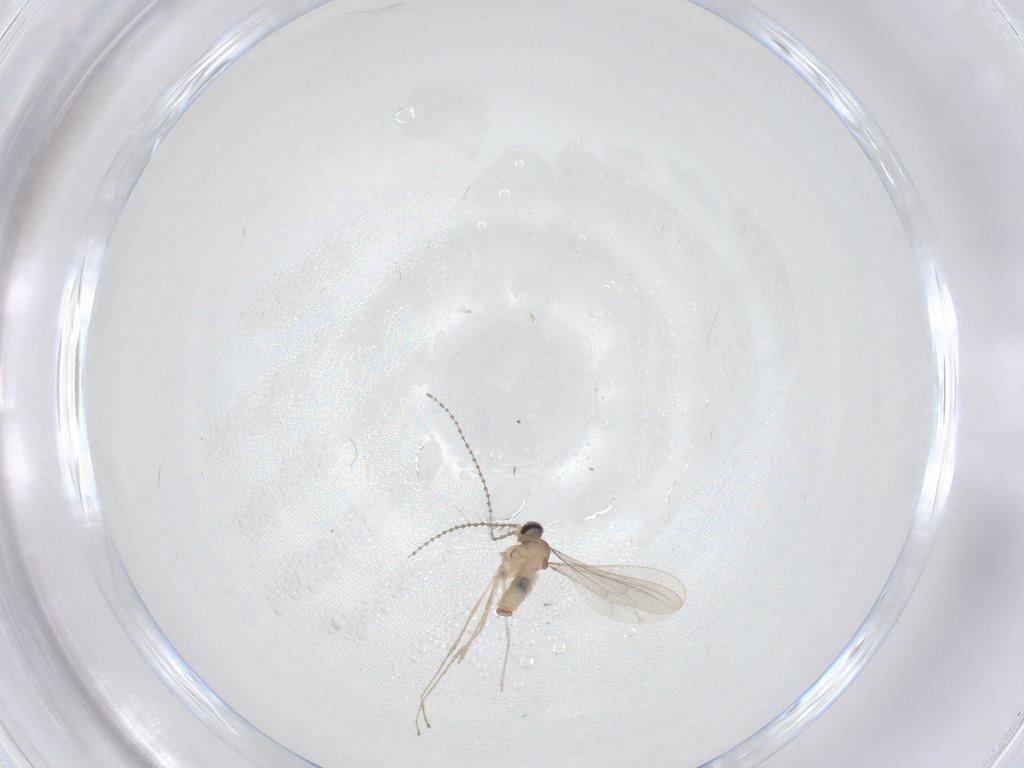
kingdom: Animalia
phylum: Arthropoda
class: Insecta
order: Diptera
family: Cecidomyiidae
